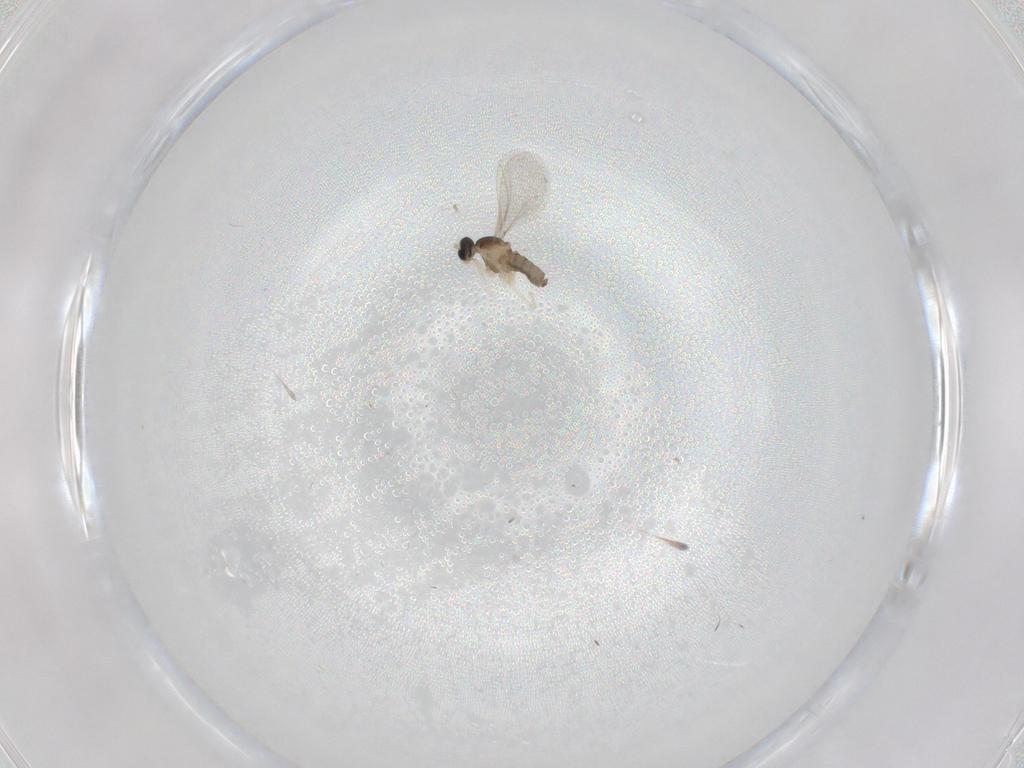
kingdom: Animalia
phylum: Arthropoda
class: Insecta
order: Diptera
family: Cecidomyiidae
